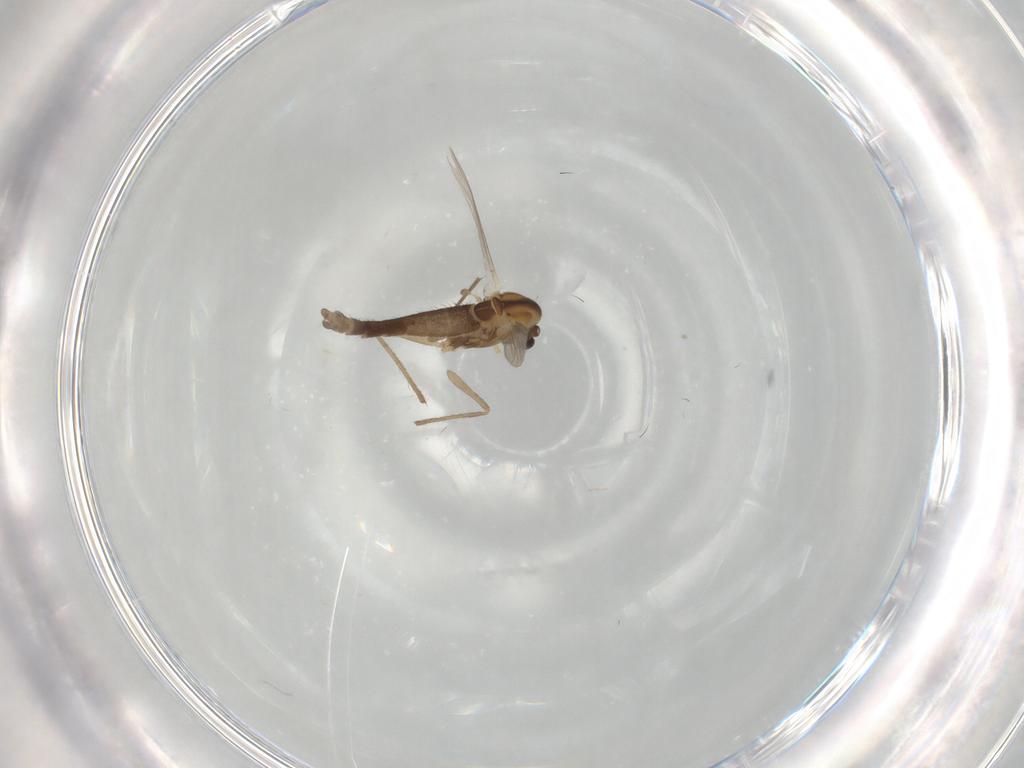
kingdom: Animalia
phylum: Arthropoda
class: Insecta
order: Diptera
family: Chironomidae
